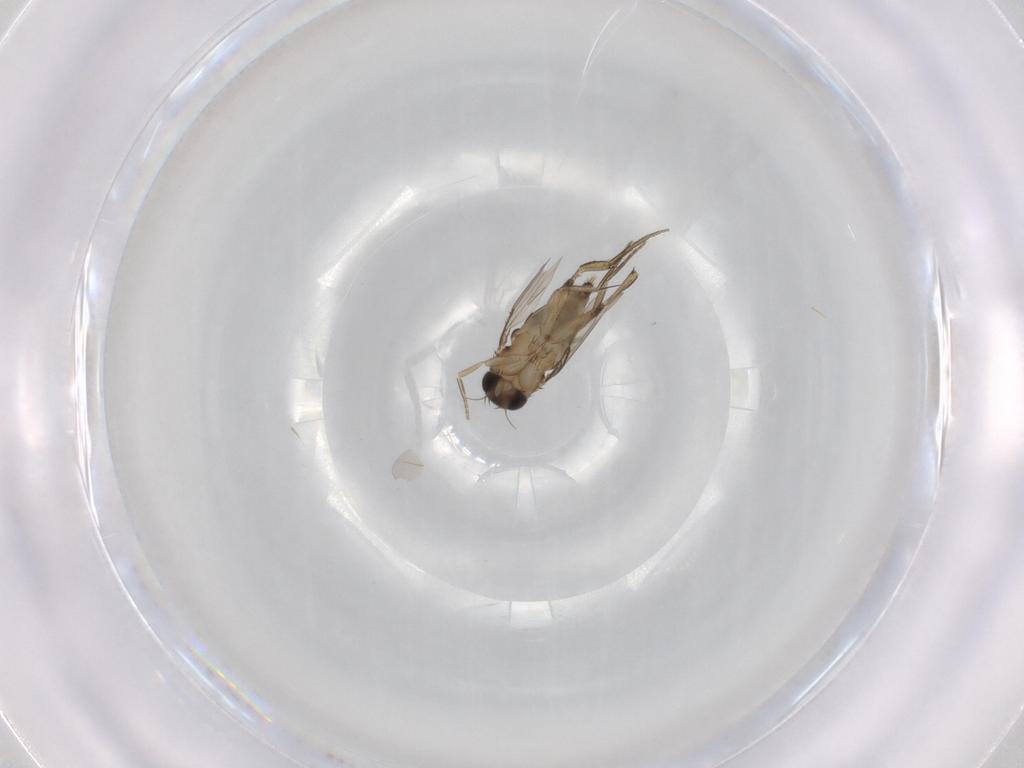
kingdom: Animalia
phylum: Arthropoda
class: Insecta
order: Diptera
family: Phoridae
